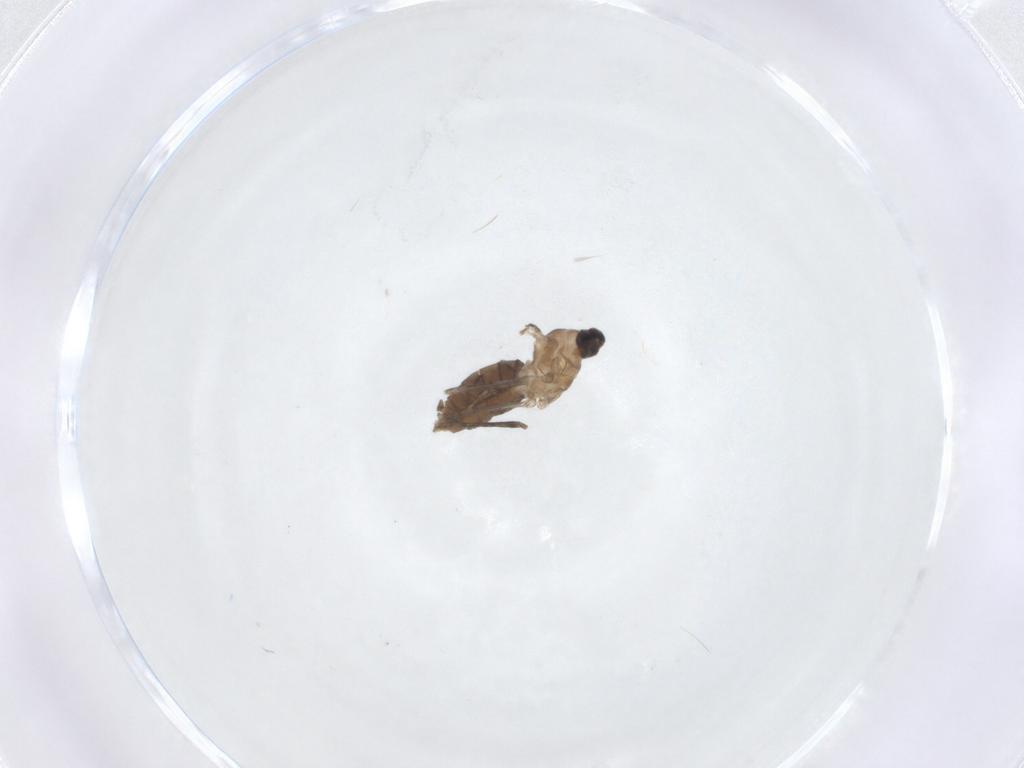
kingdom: Animalia
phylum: Arthropoda
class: Insecta
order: Diptera
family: Cecidomyiidae
